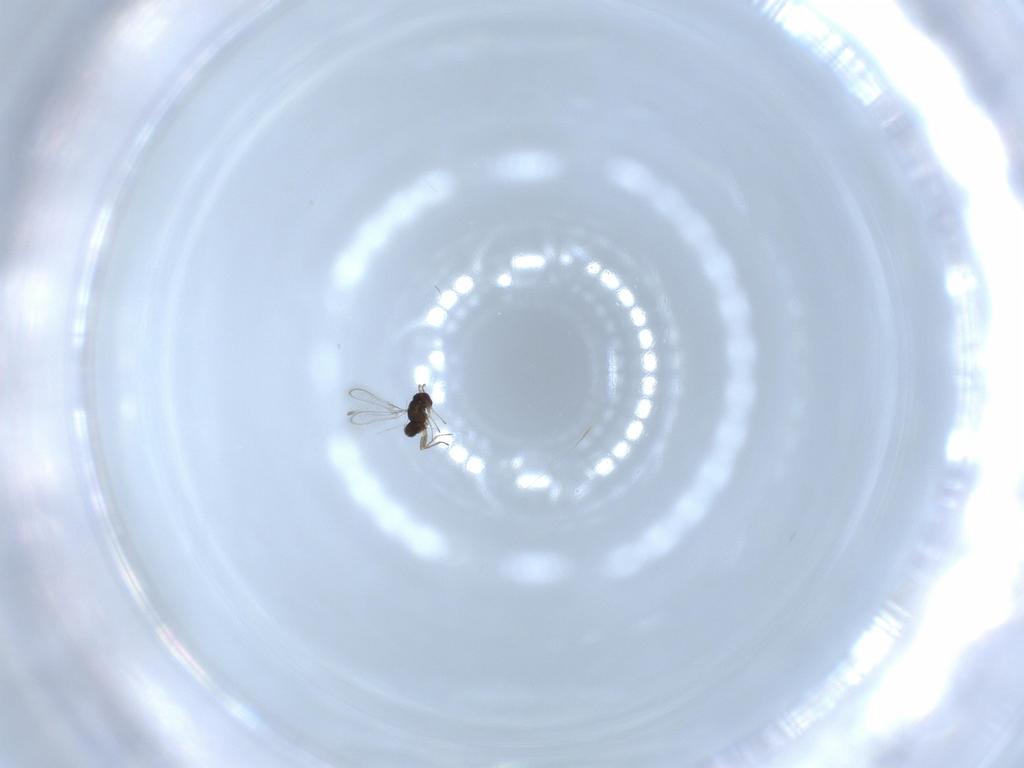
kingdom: Animalia
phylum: Arthropoda
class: Insecta
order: Hymenoptera
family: Mymaridae
